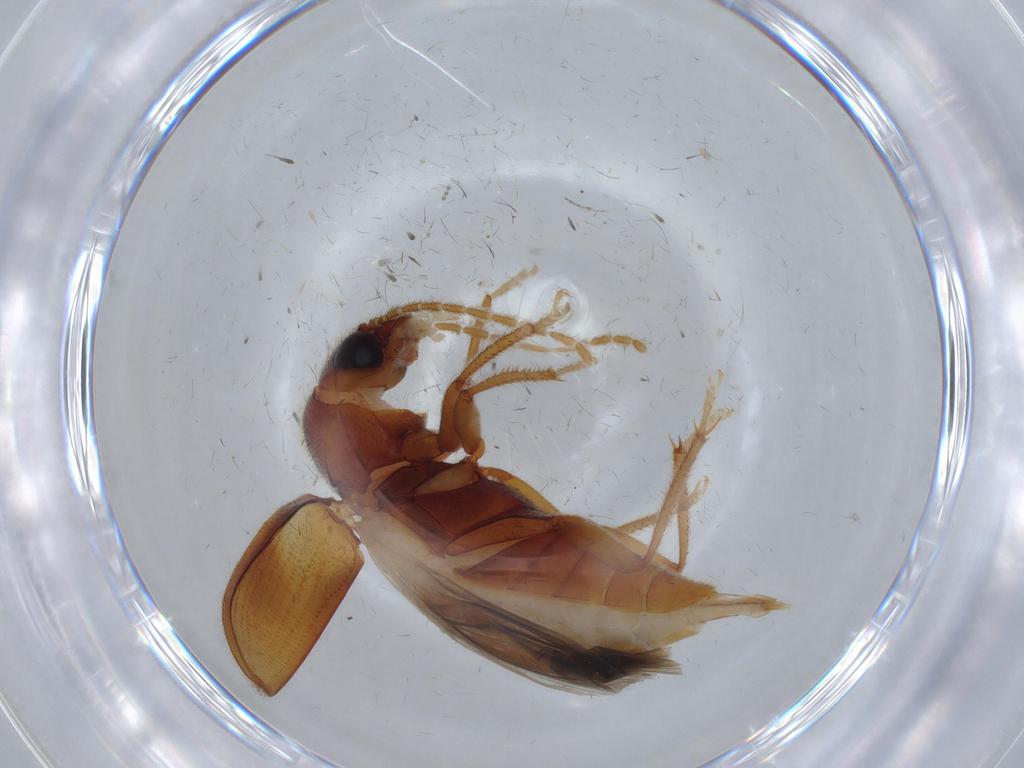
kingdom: Animalia
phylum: Arthropoda
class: Insecta
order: Coleoptera
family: Ptilodactylidae
